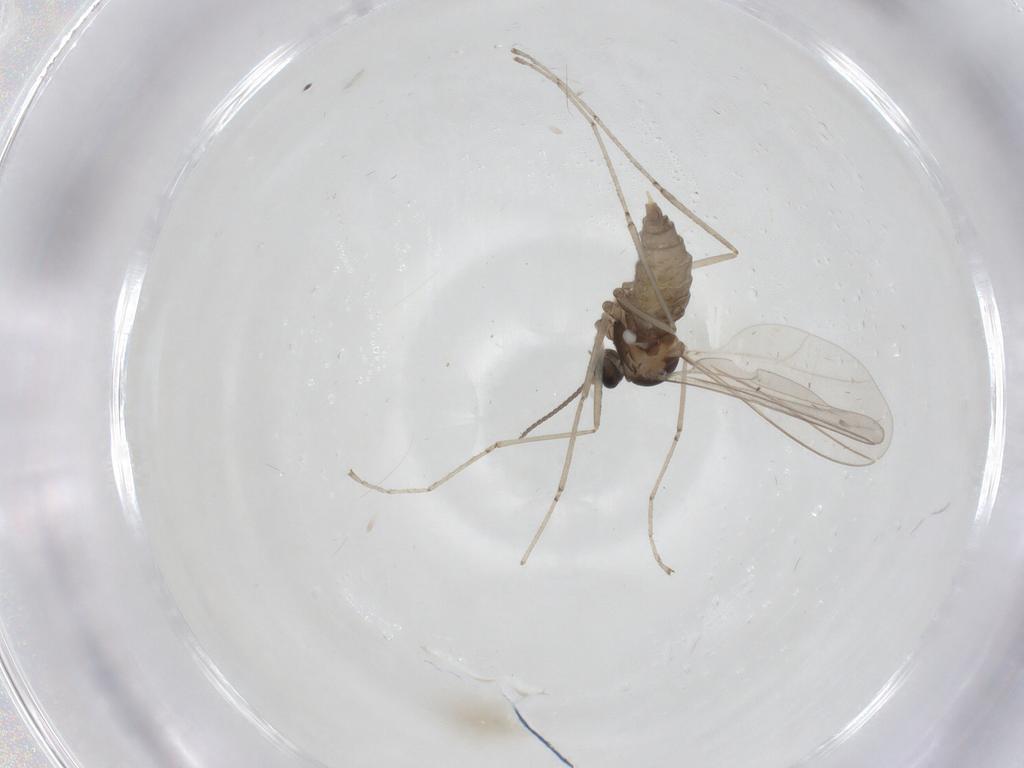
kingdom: Animalia
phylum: Arthropoda
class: Insecta
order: Diptera
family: Cecidomyiidae
